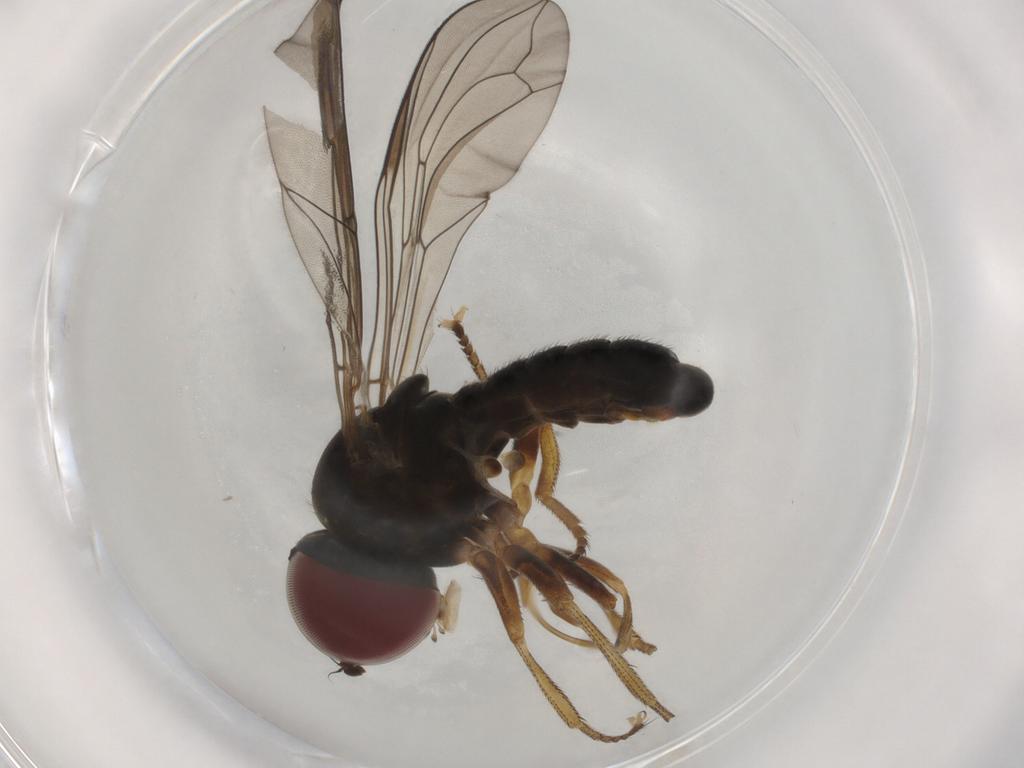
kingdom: Animalia
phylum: Arthropoda
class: Insecta
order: Diptera
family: Pipunculidae
